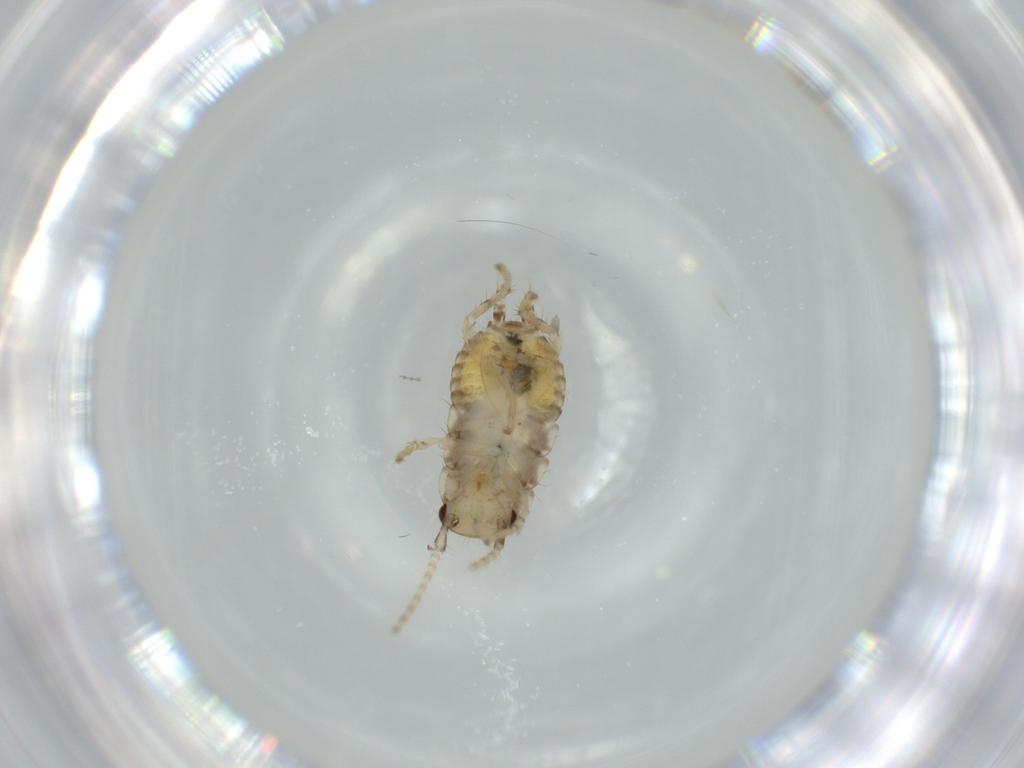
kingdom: Animalia
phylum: Arthropoda
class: Insecta
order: Blattodea
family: Ectobiidae
